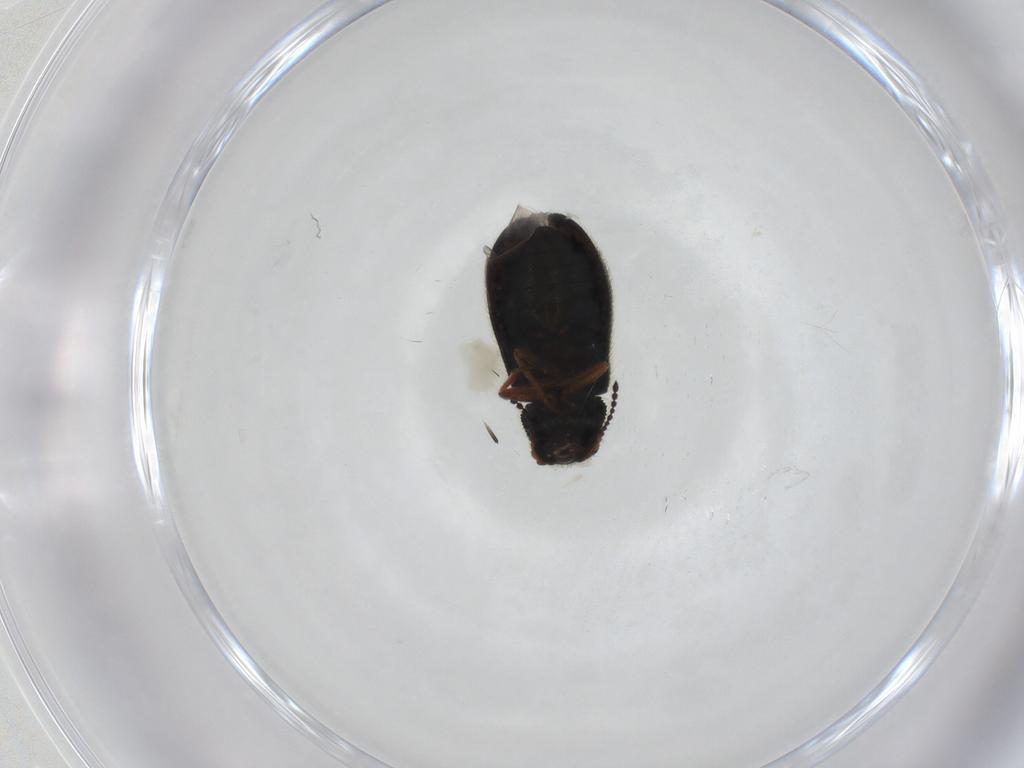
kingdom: Animalia
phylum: Arthropoda
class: Insecta
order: Coleoptera
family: Melyridae
